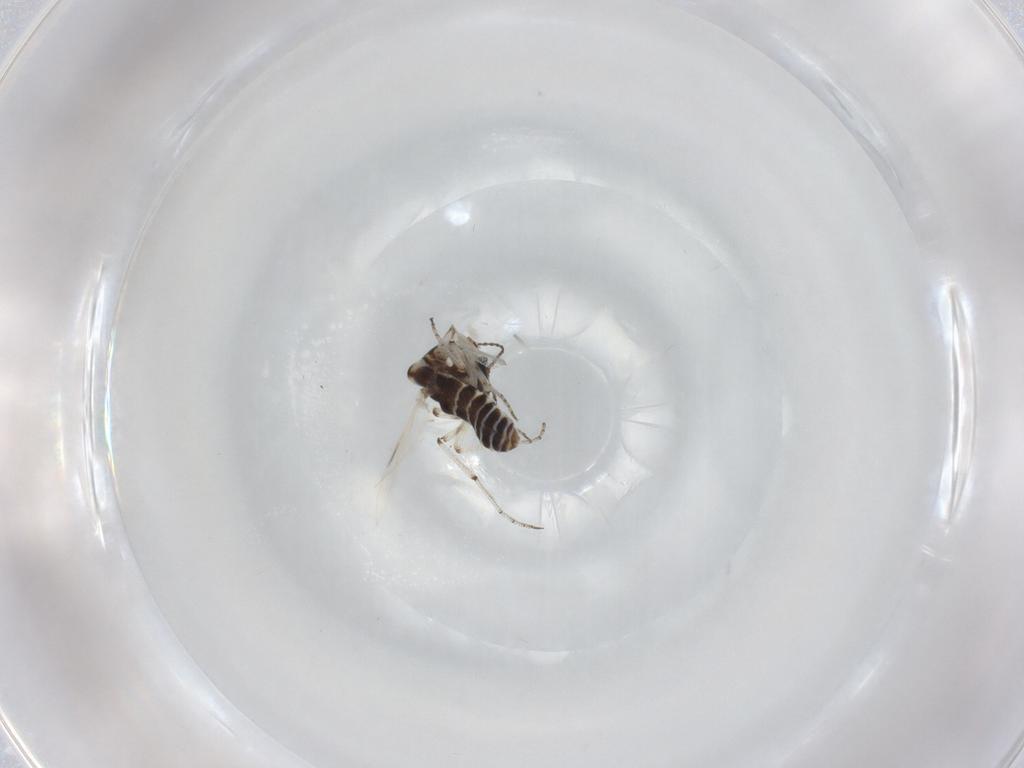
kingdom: Animalia
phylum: Arthropoda
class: Insecta
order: Diptera
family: Ceratopogonidae
